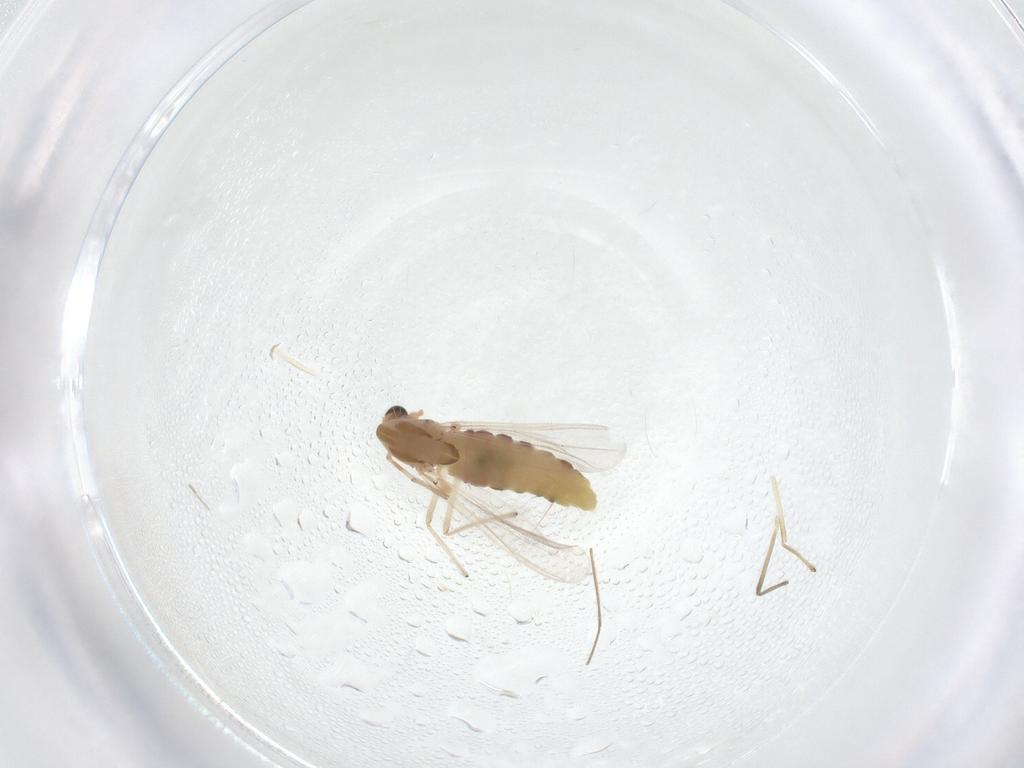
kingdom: Animalia
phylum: Arthropoda
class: Insecta
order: Diptera
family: Chironomidae
